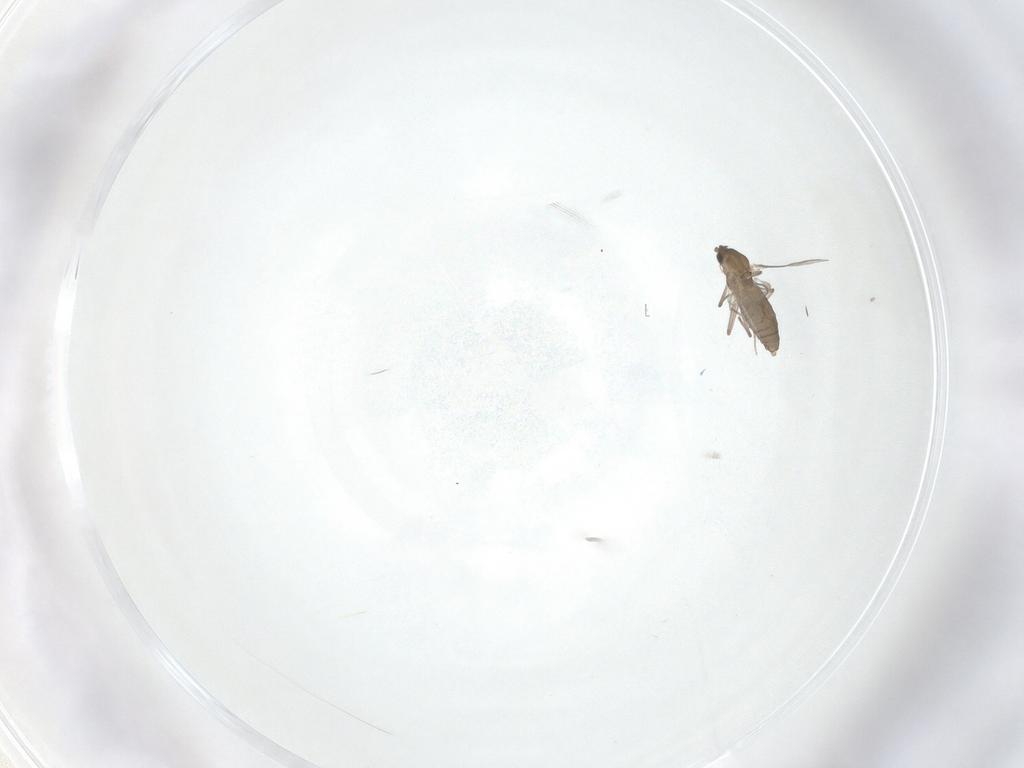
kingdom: Animalia
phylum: Arthropoda
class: Insecta
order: Diptera
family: Chironomidae
